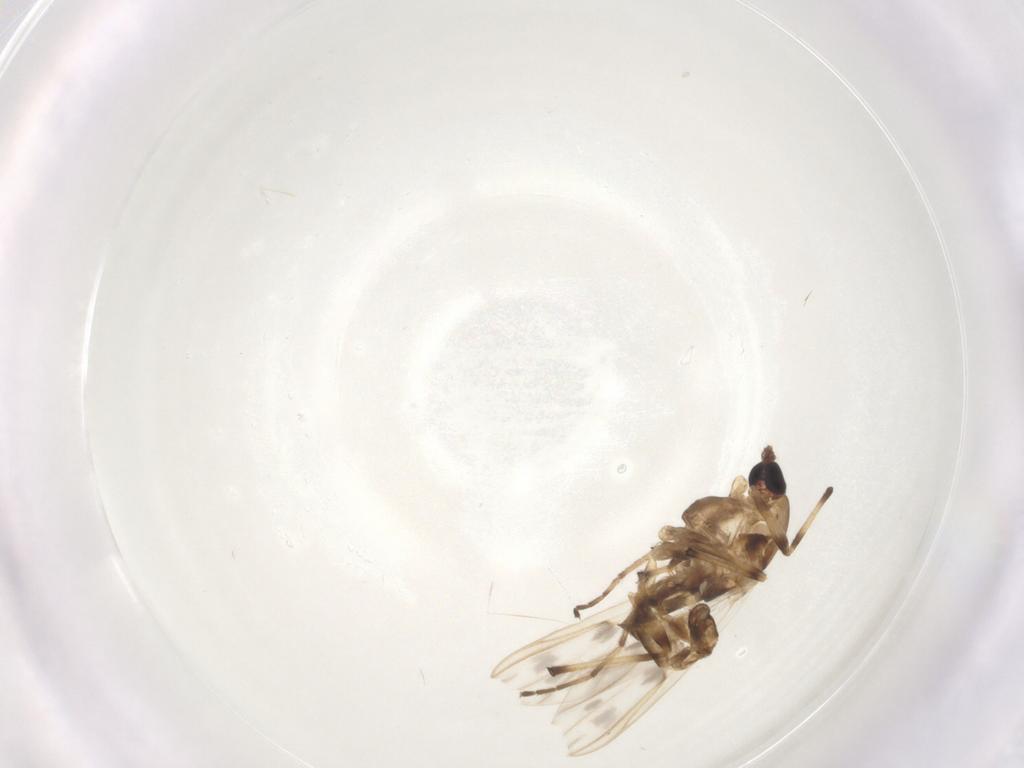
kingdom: Animalia
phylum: Arthropoda
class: Insecta
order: Diptera
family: Chironomidae
